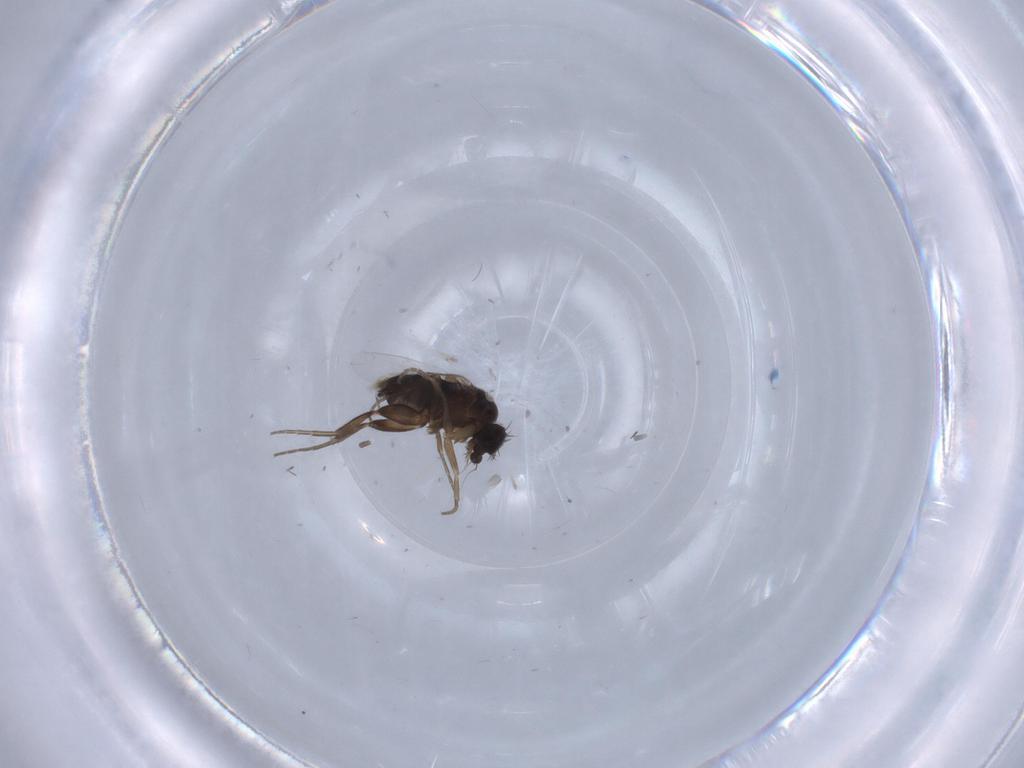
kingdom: Animalia
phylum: Arthropoda
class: Insecta
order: Diptera
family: Phoridae
